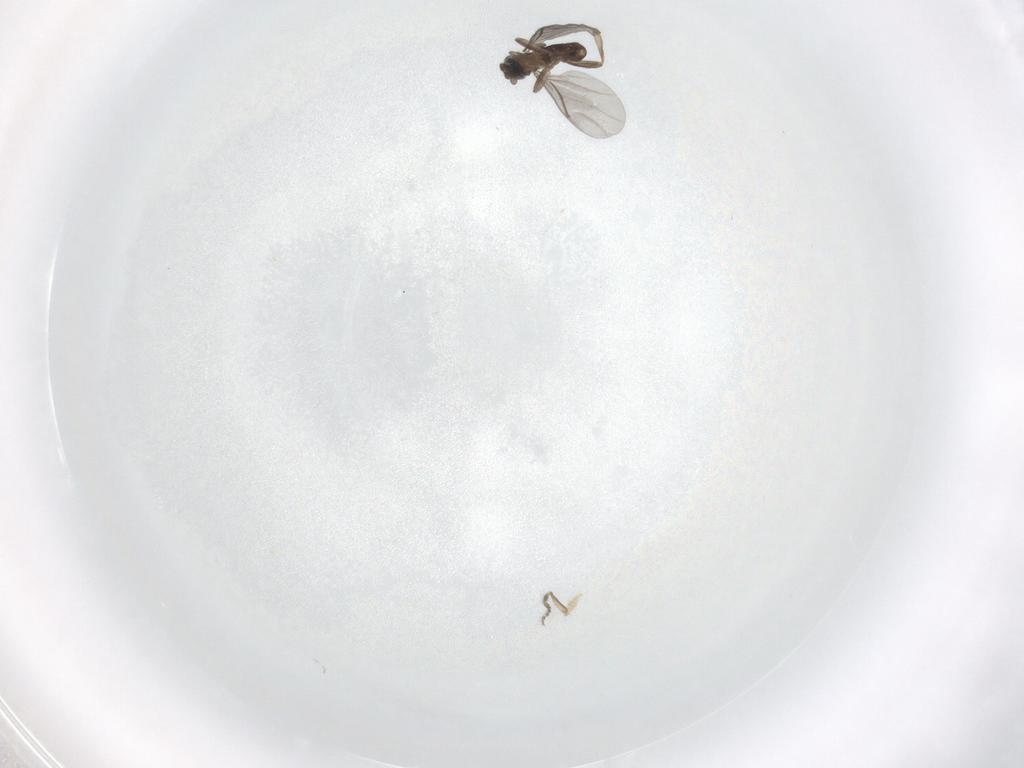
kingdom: Animalia
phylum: Arthropoda
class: Insecta
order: Diptera
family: Phoridae
